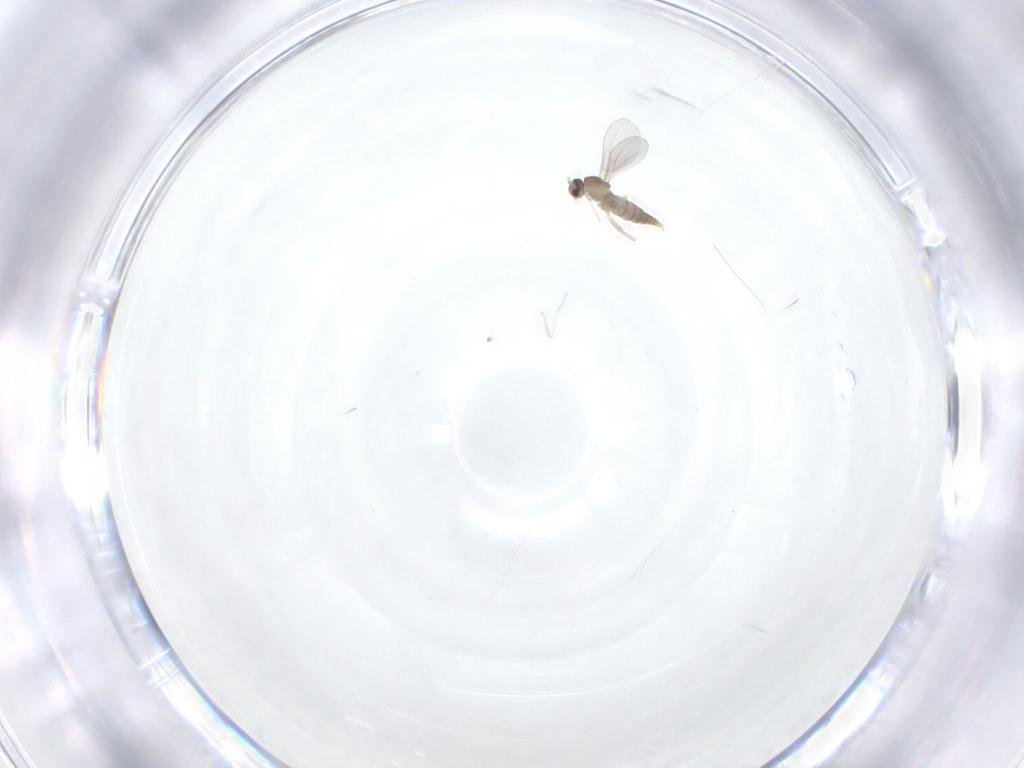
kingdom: Animalia
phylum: Arthropoda
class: Insecta
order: Diptera
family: Cecidomyiidae
